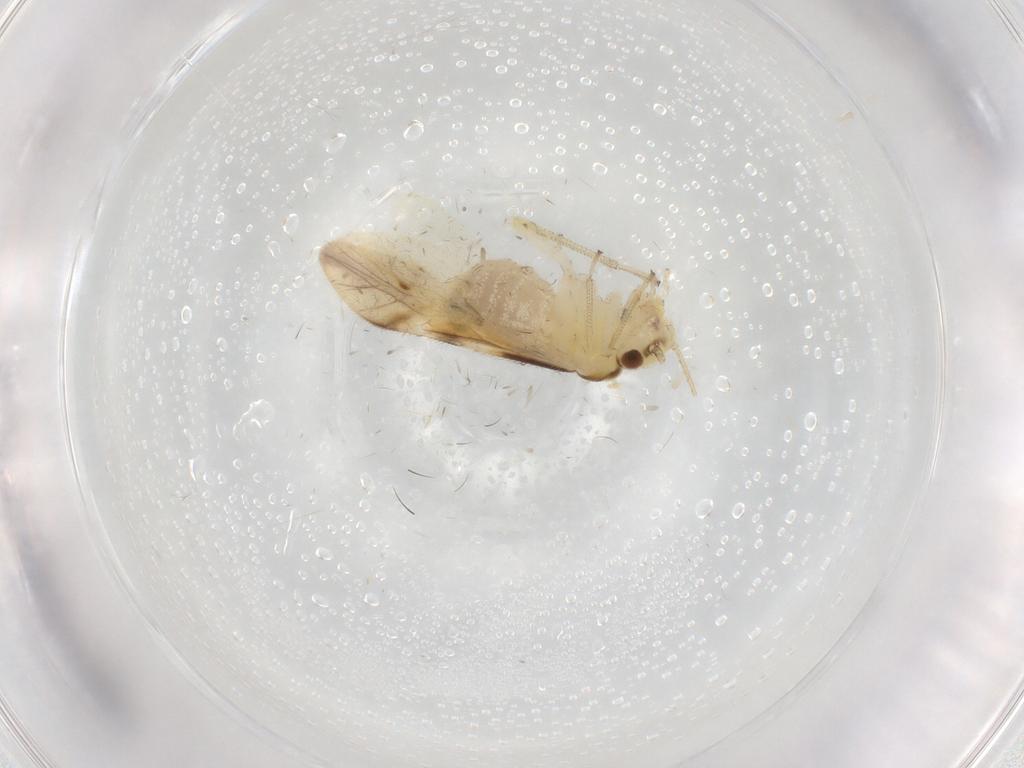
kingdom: Animalia
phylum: Arthropoda
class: Insecta
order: Psocodea
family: Lepidopsocidae
